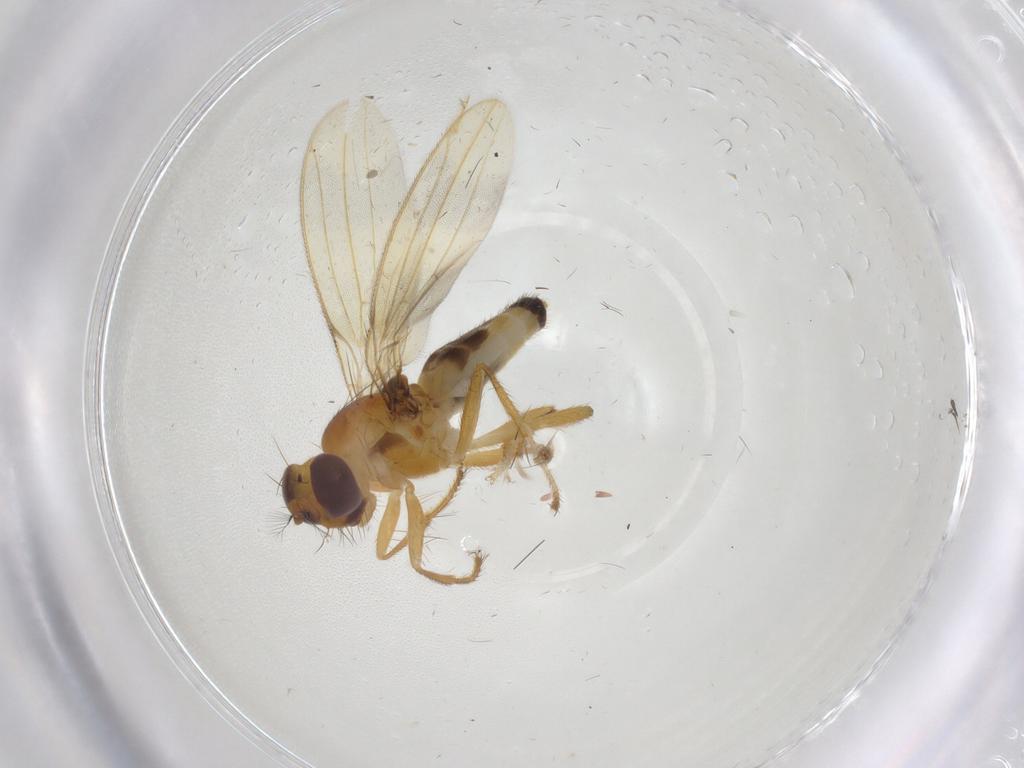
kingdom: Animalia
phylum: Arthropoda
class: Insecta
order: Diptera
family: Periscelididae
